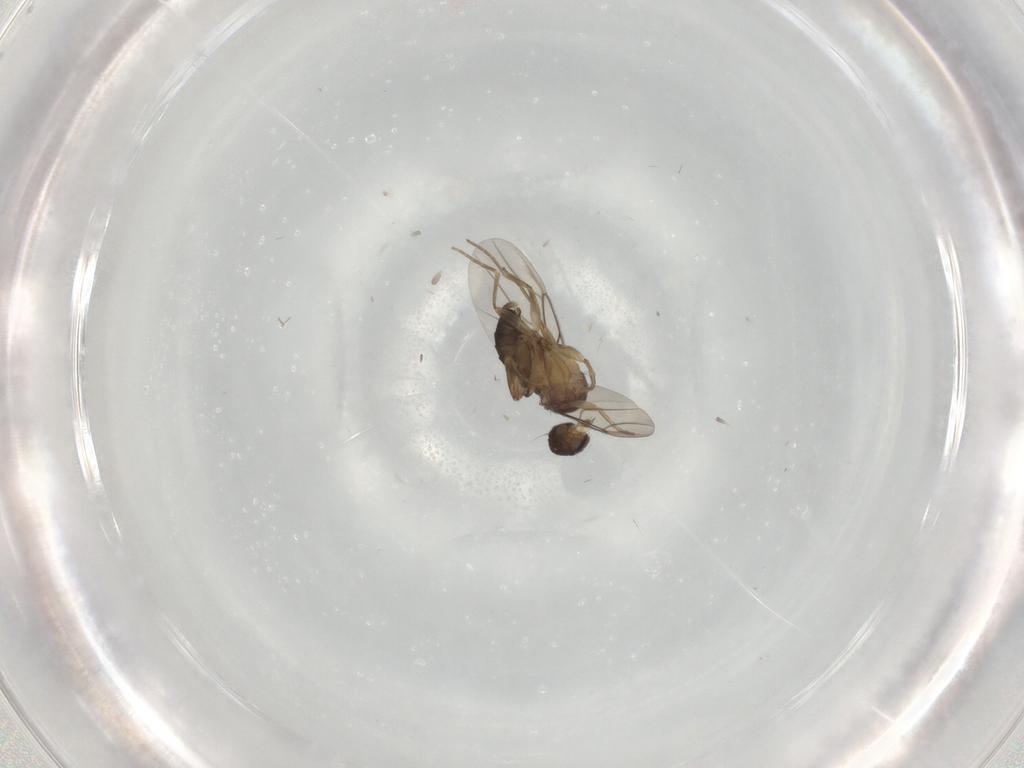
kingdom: Animalia
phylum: Arthropoda
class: Insecta
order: Diptera
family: Phoridae
